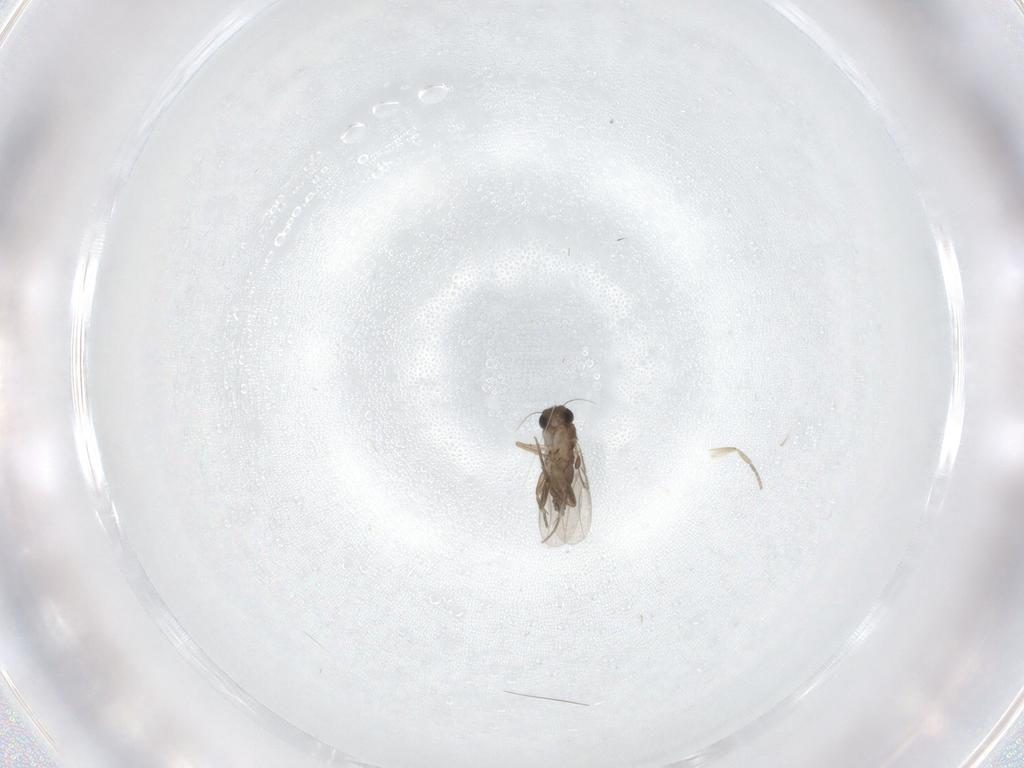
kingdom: Animalia
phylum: Arthropoda
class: Insecta
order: Diptera
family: Phoridae
